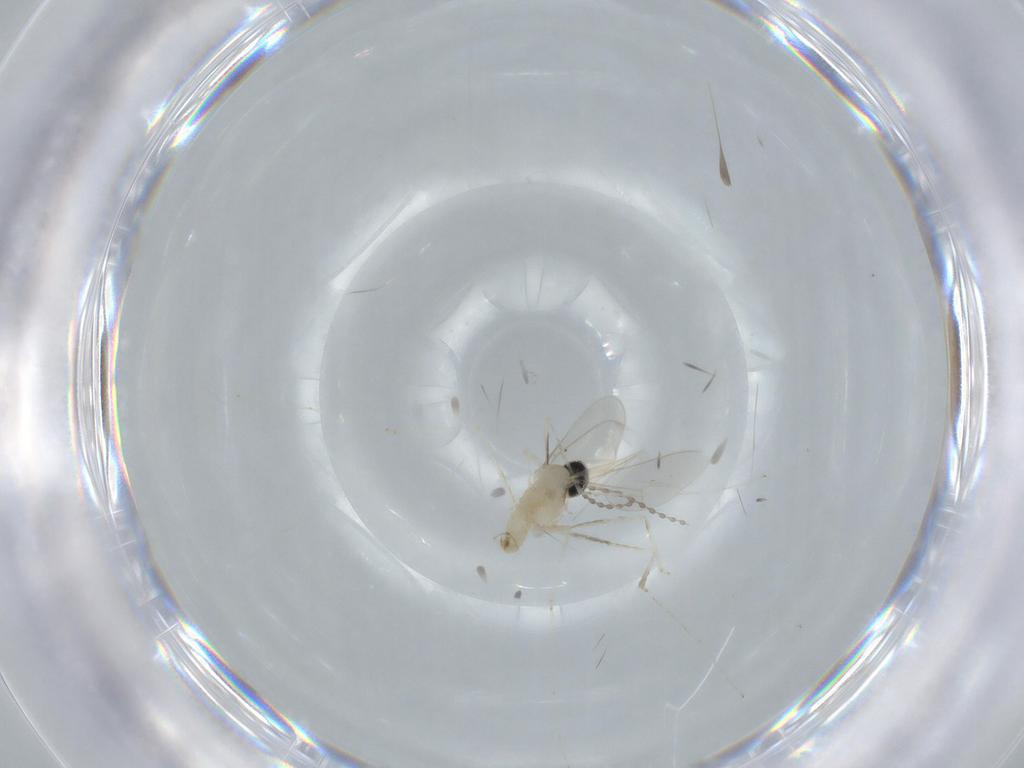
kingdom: Animalia
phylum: Arthropoda
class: Insecta
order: Diptera
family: Cecidomyiidae
